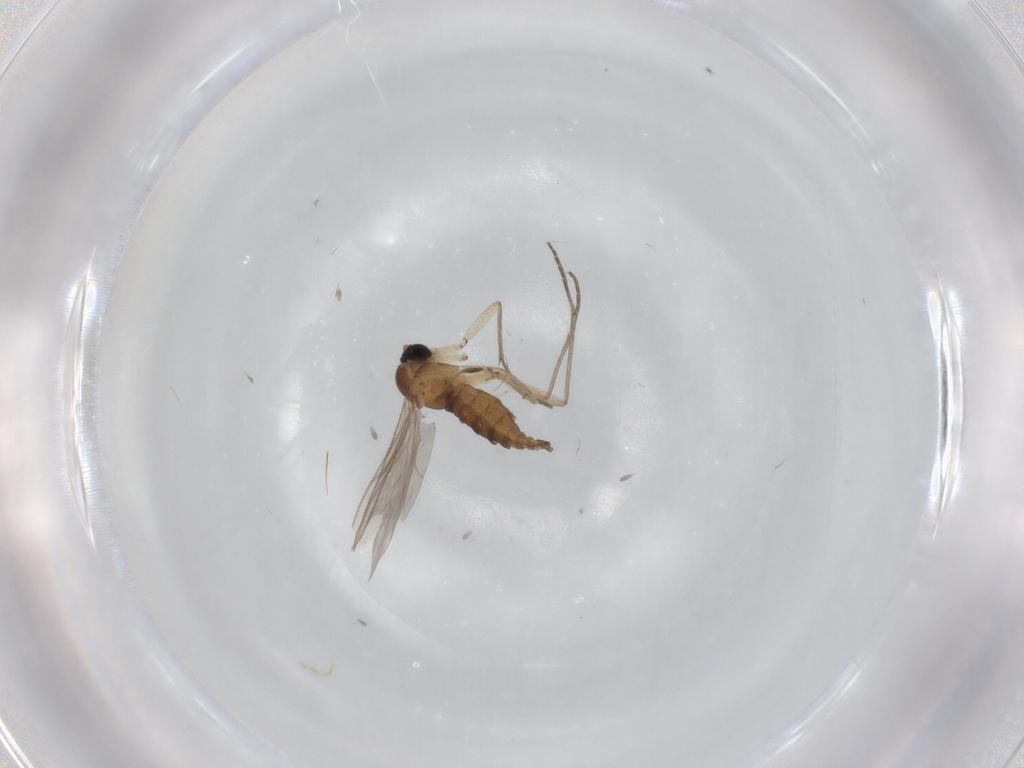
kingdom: Animalia
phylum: Arthropoda
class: Insecta
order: Diptera
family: Sciaridae
